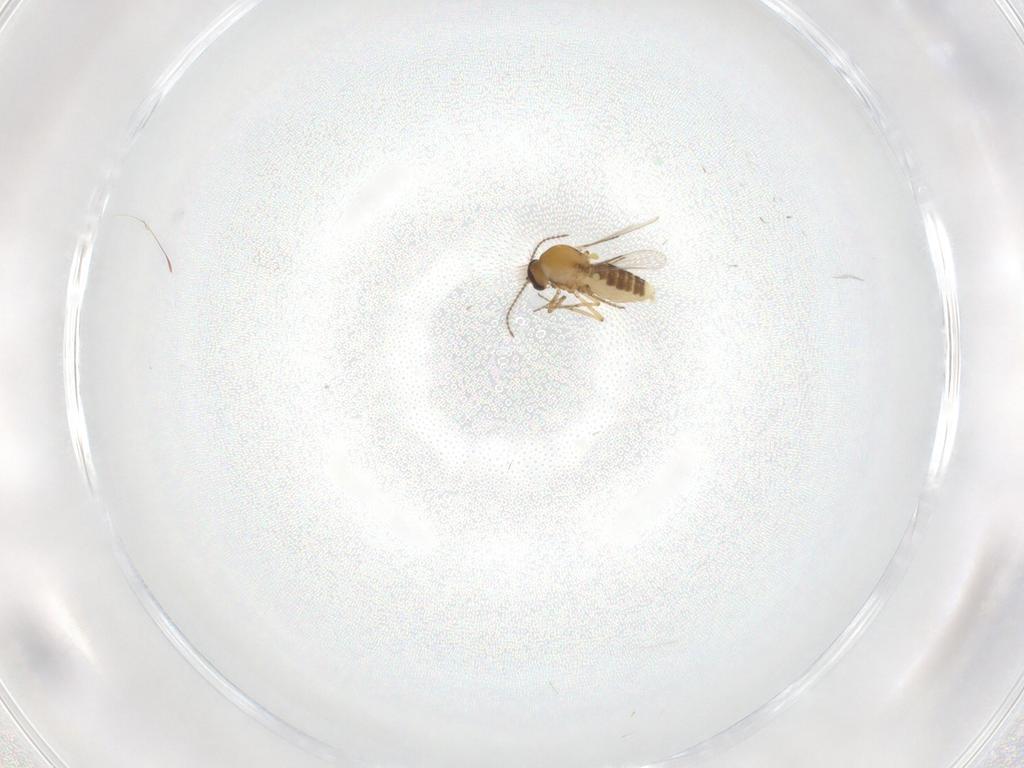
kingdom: Animalia
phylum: Arthropoda
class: Insecta
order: Diptera
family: Ceratopogonidae
